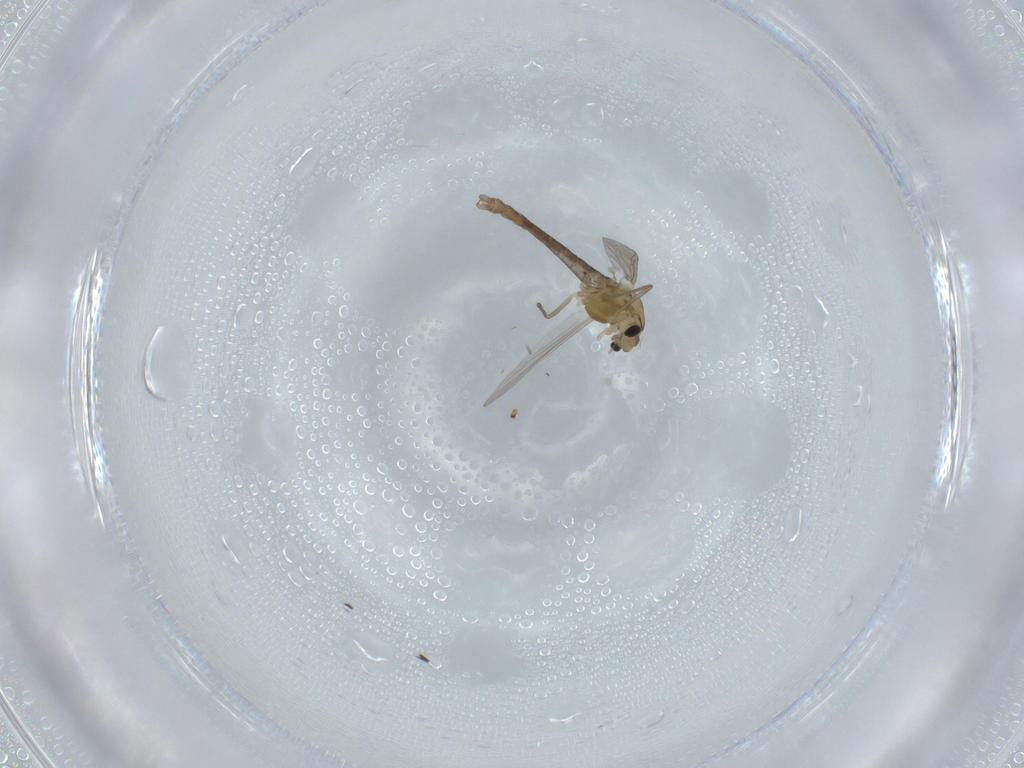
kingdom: Animalia
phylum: Arthropoda
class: Insecta
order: Diptera
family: Chironomidae
